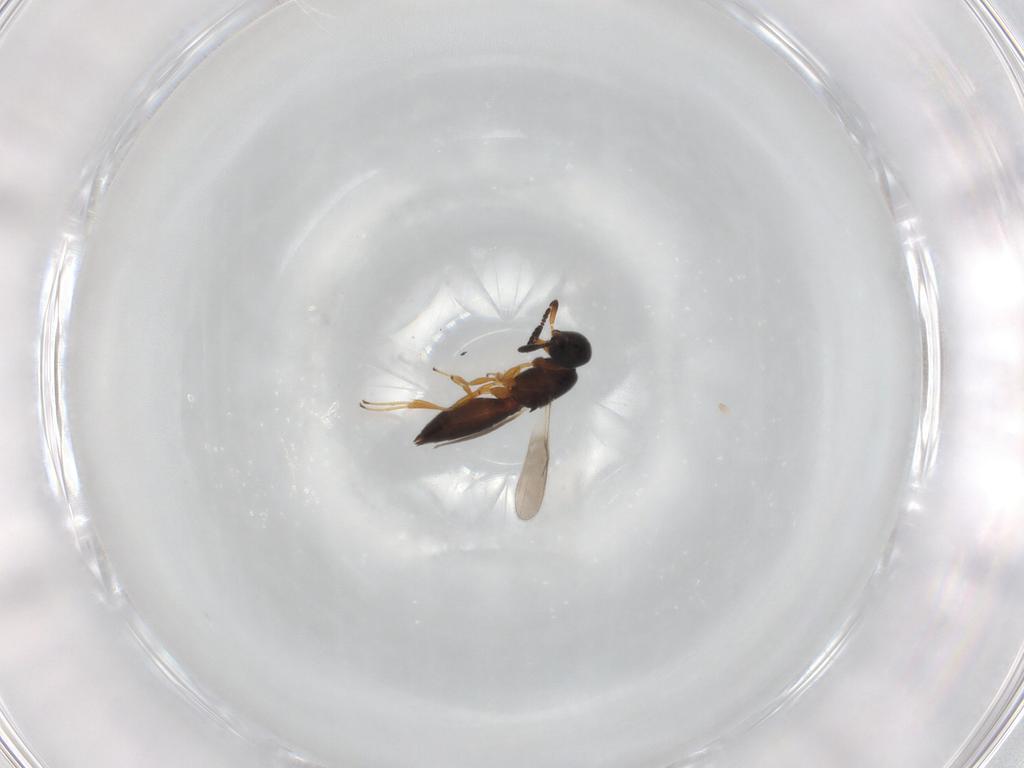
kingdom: Animalia
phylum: Arthropoda
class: Insecta
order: Hymenoptera
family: Scelionidae
